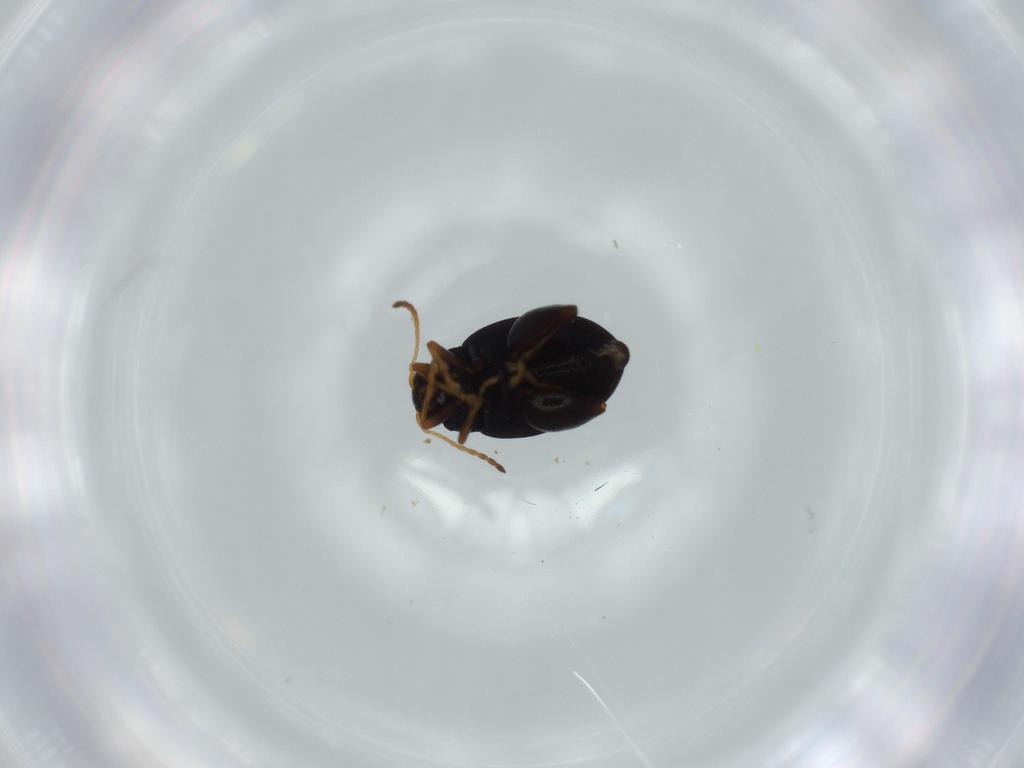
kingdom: Animalia
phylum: Arthropoda
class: Insecta
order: Coleoptera
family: Chrysomelidae
